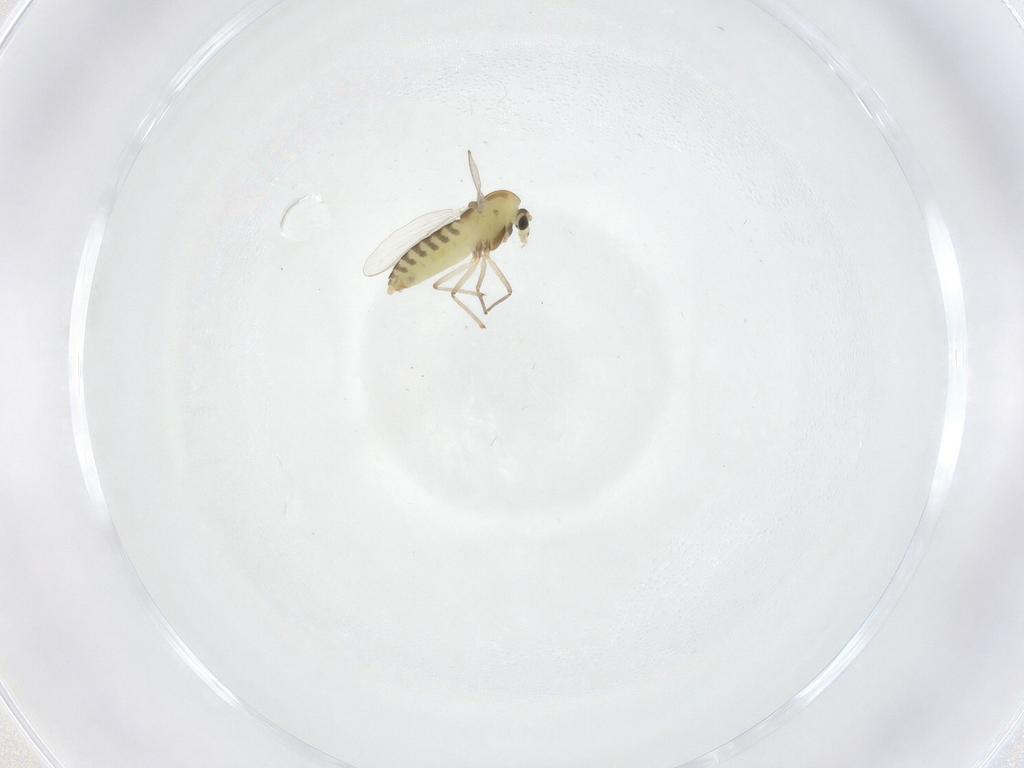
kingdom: Animalia
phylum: Arthropoda
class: Insecta
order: Diptera
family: Chironomidae
